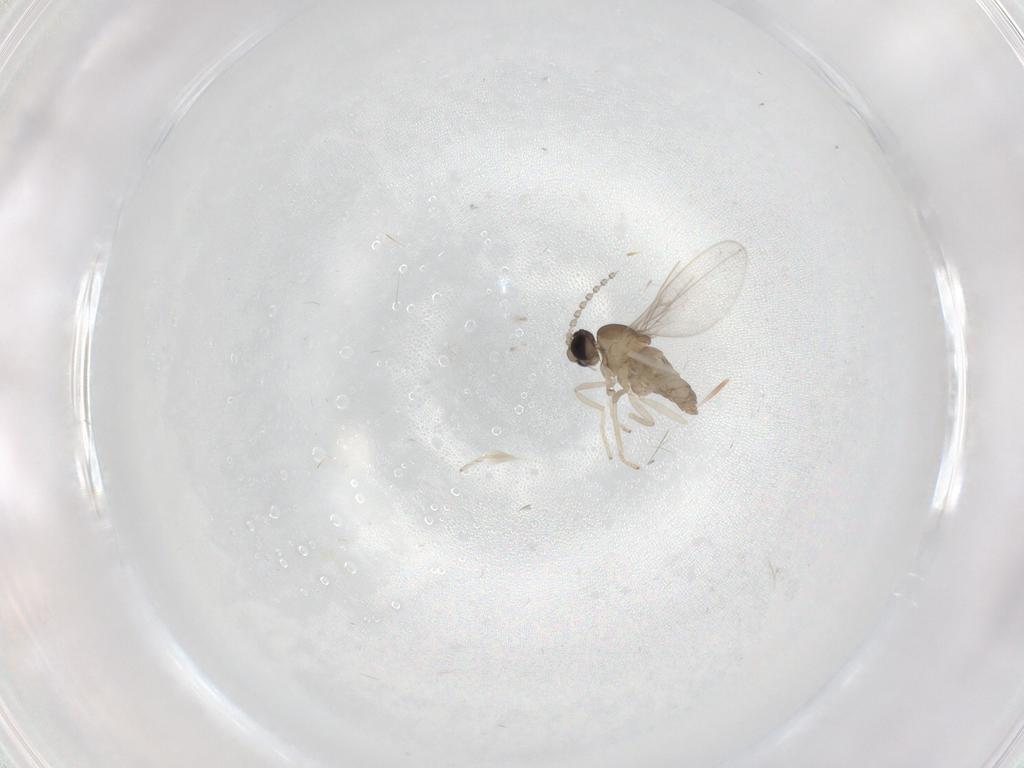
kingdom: Animalia
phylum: Arthropoda
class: Insecta
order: Diptera
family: Cecidomyiidae
